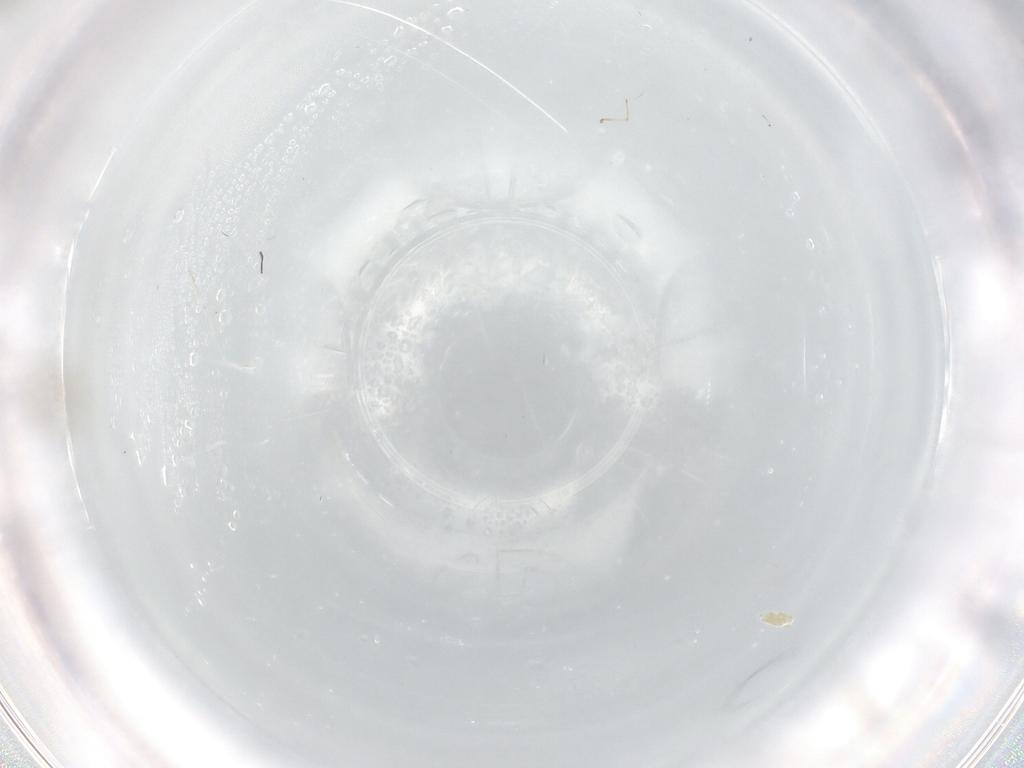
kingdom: Animalia
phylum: Arthropoda
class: Insecta
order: Diptera
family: Chironomidae
